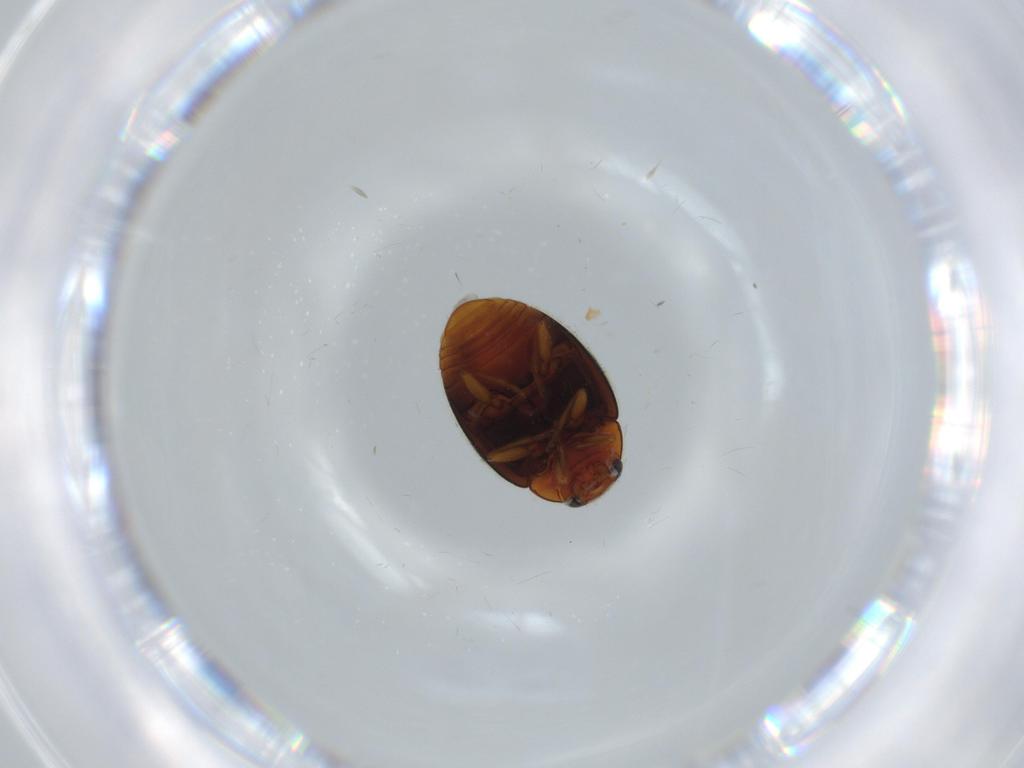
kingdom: Animalia
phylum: Arthropoda
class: Insecta
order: Coleoptera
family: Coccinellidae
